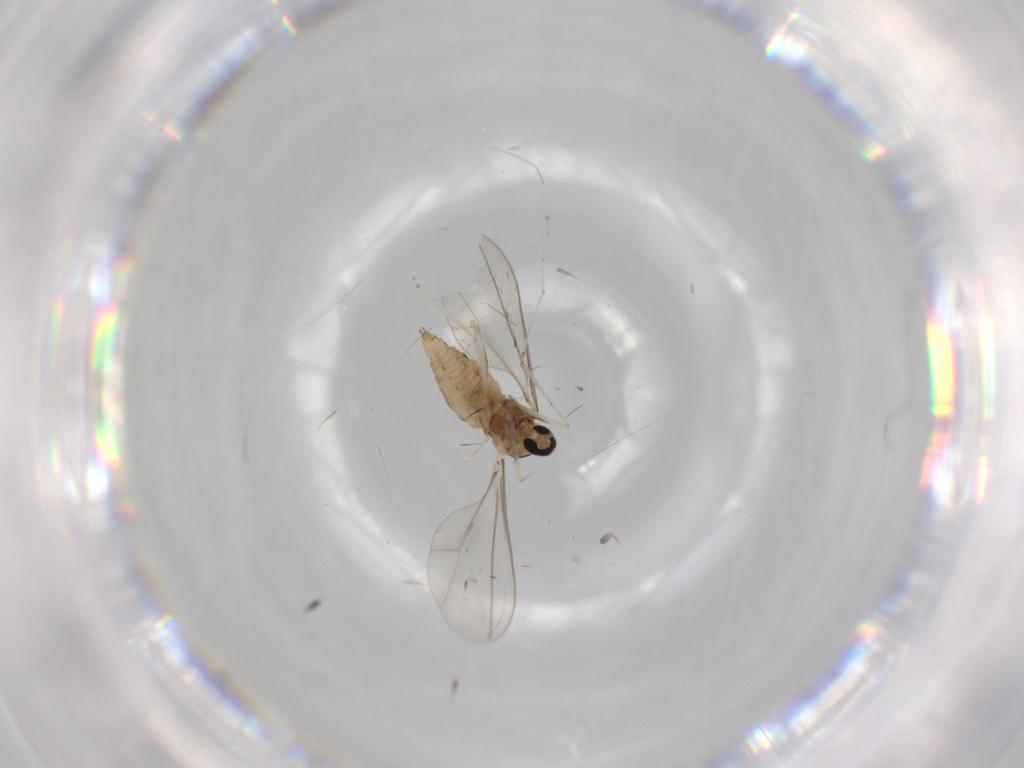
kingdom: Animalia
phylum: Arthropoda
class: Insecta
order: Diptera
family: Cecidomyiidae
